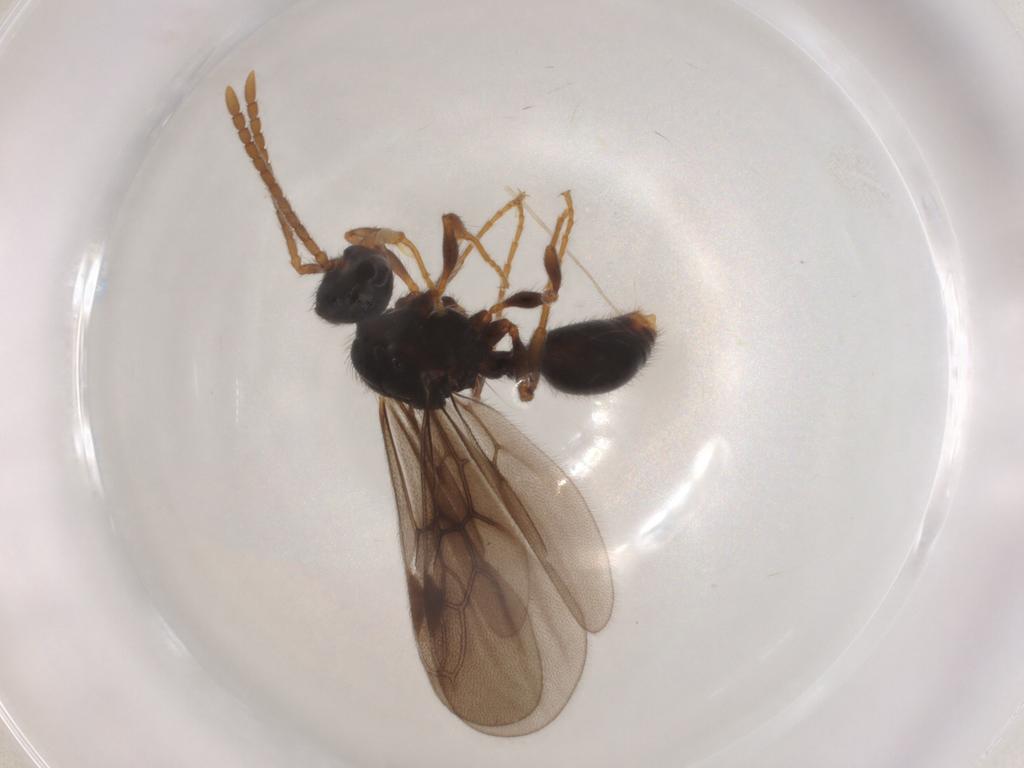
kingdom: Animalia
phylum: Arthropoda
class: Insecta
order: Hymenoptera
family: Formicidae
